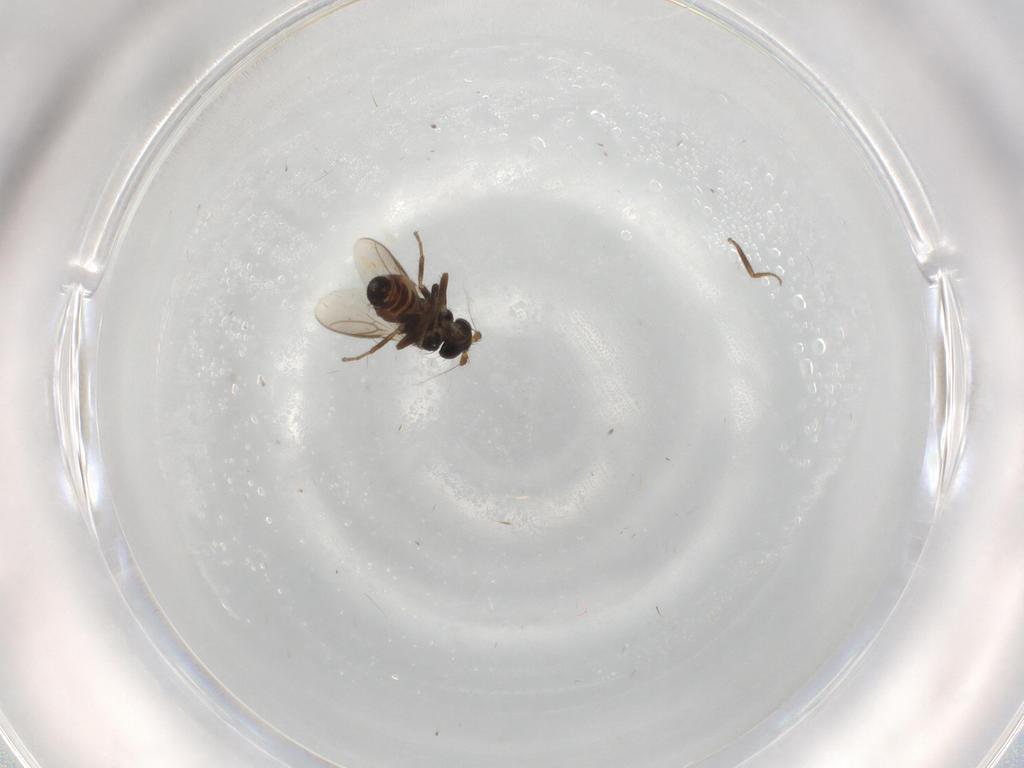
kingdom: Animalia
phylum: Arthropoda
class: Insecta
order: Diptera
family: Sphaeroceridae
